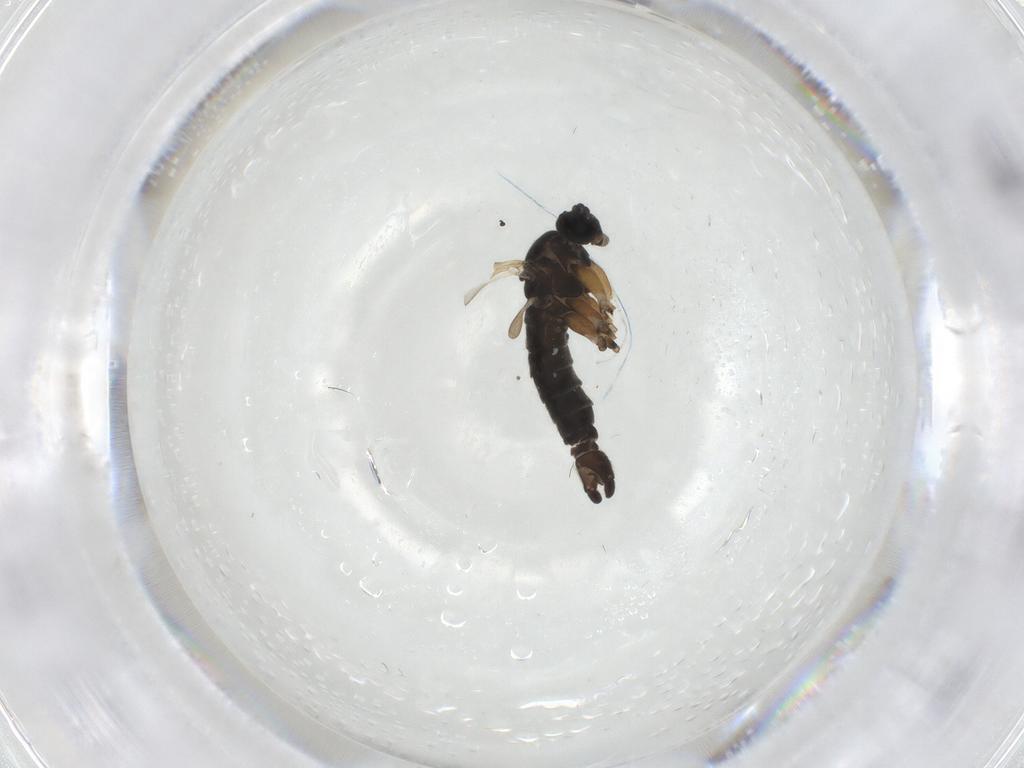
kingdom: Animalia
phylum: Arthropoda
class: Insecta
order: Diptera
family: Sciaridae
